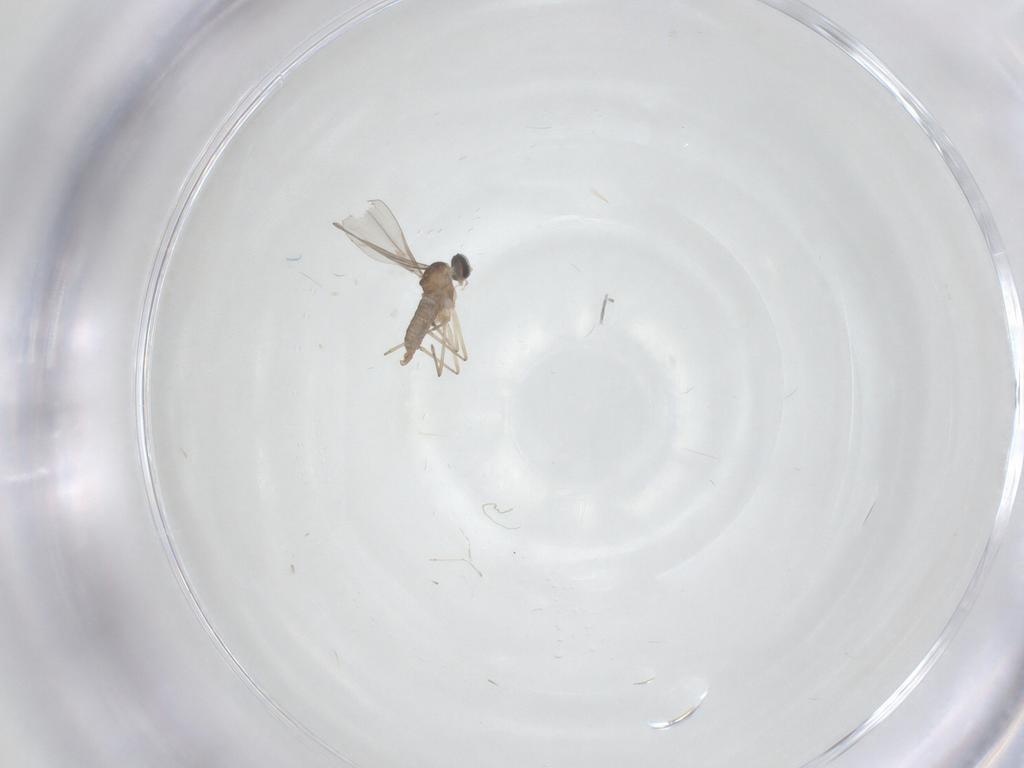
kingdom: Animalia
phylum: Arthropoda
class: Insecta
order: Diptera
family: Cecidomyiidae
